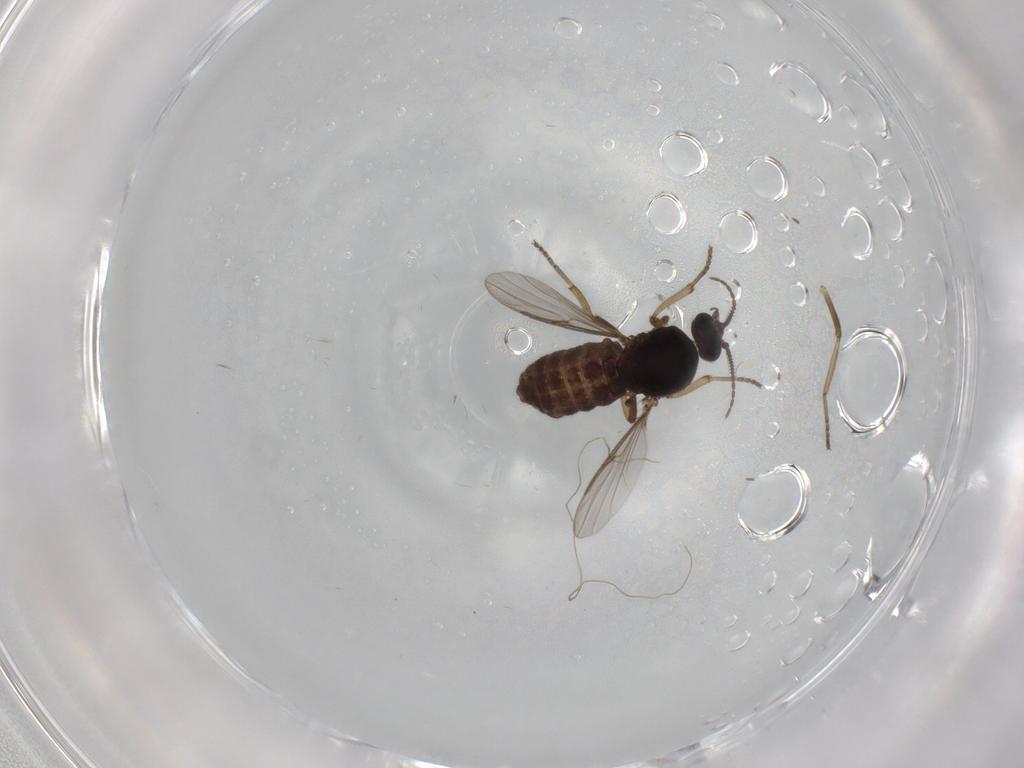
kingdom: Animalia
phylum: Arthropoda
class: Insecta
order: Diptera
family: Ceratopogonidae
